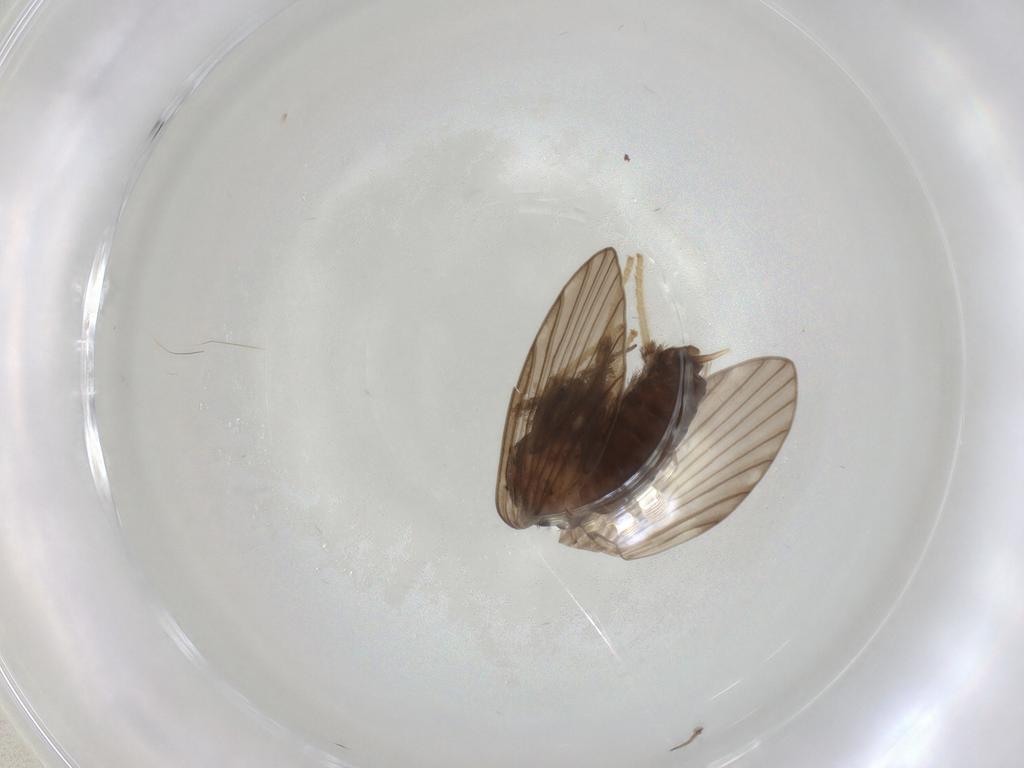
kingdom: Animalia
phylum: Arthropoda
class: Insecta
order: Diptera
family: Psychodidae
